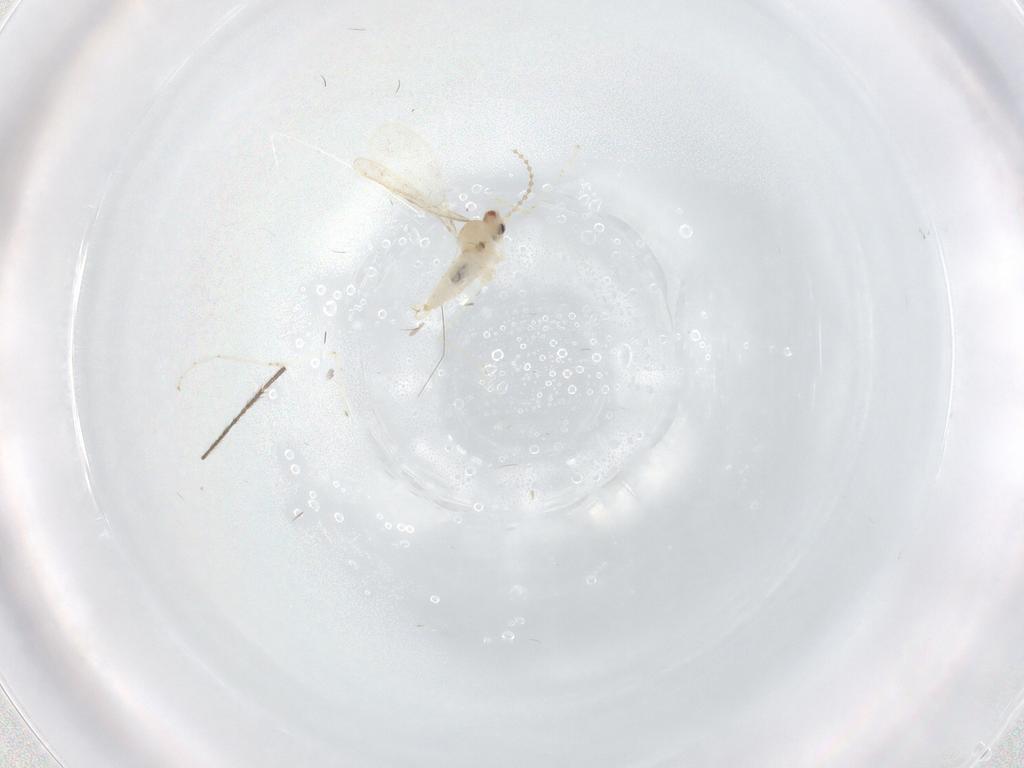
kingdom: Animalia
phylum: Arthropoda
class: Insecta
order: Diptera
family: Cecidomyiidae
